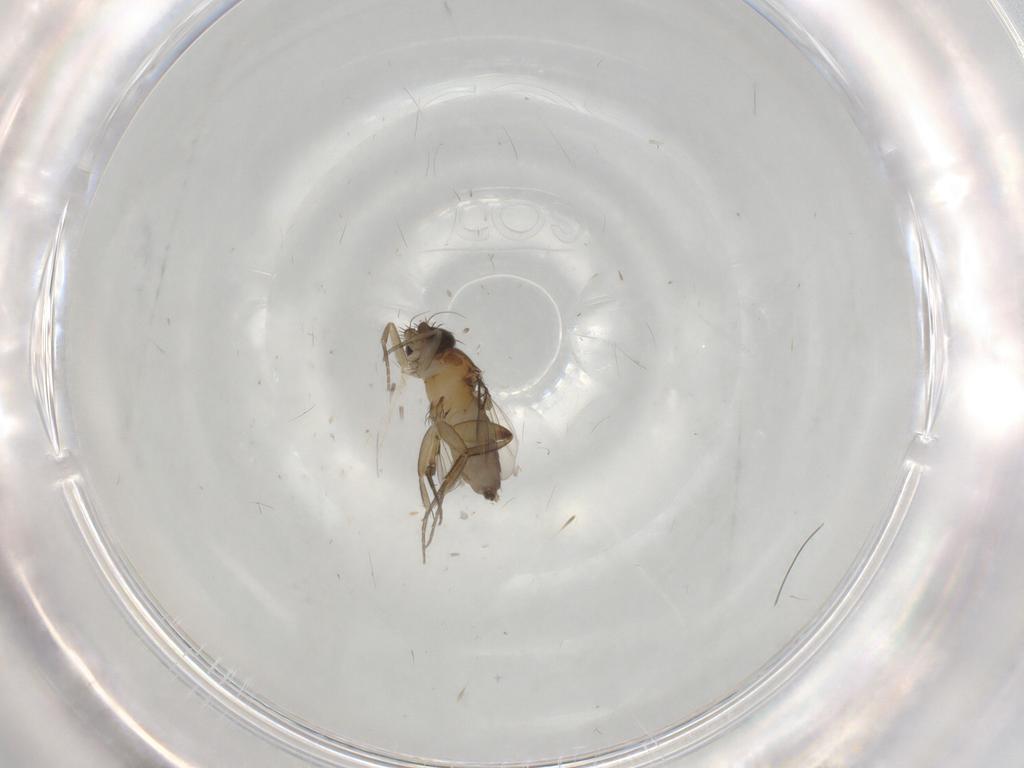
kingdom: Animalia
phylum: Arthropoda
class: Insecta
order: Diptera
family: Phoridae
